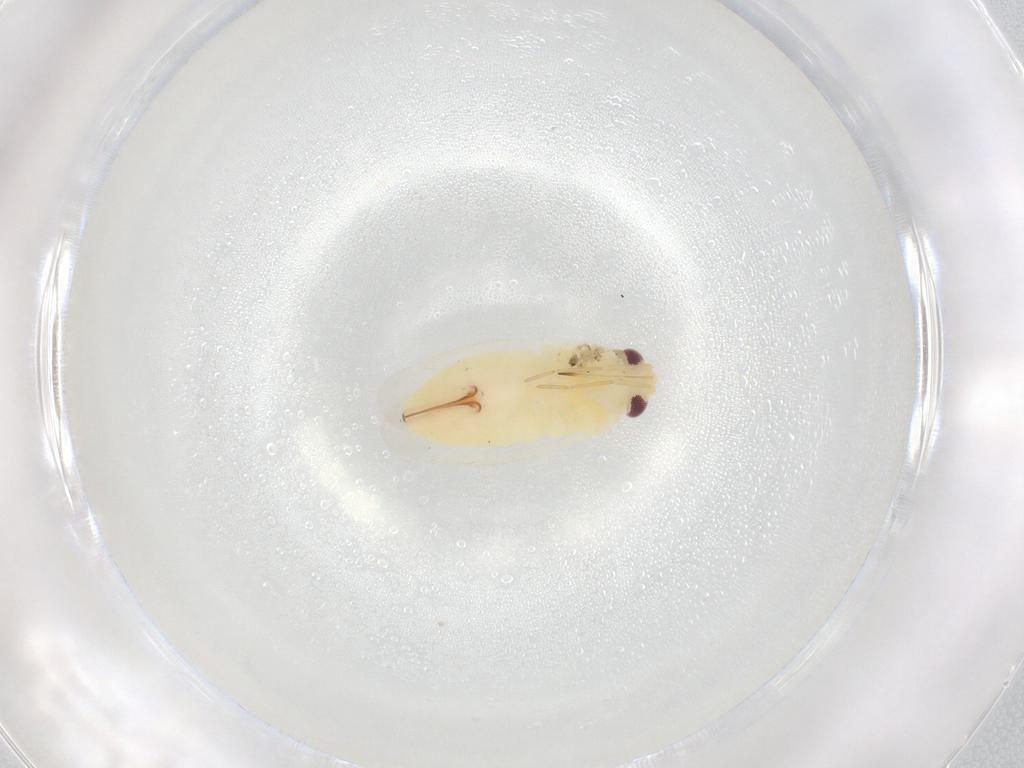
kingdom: Animalia
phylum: Arthropoda
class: Insecta
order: Hemiptera
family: Miridae
